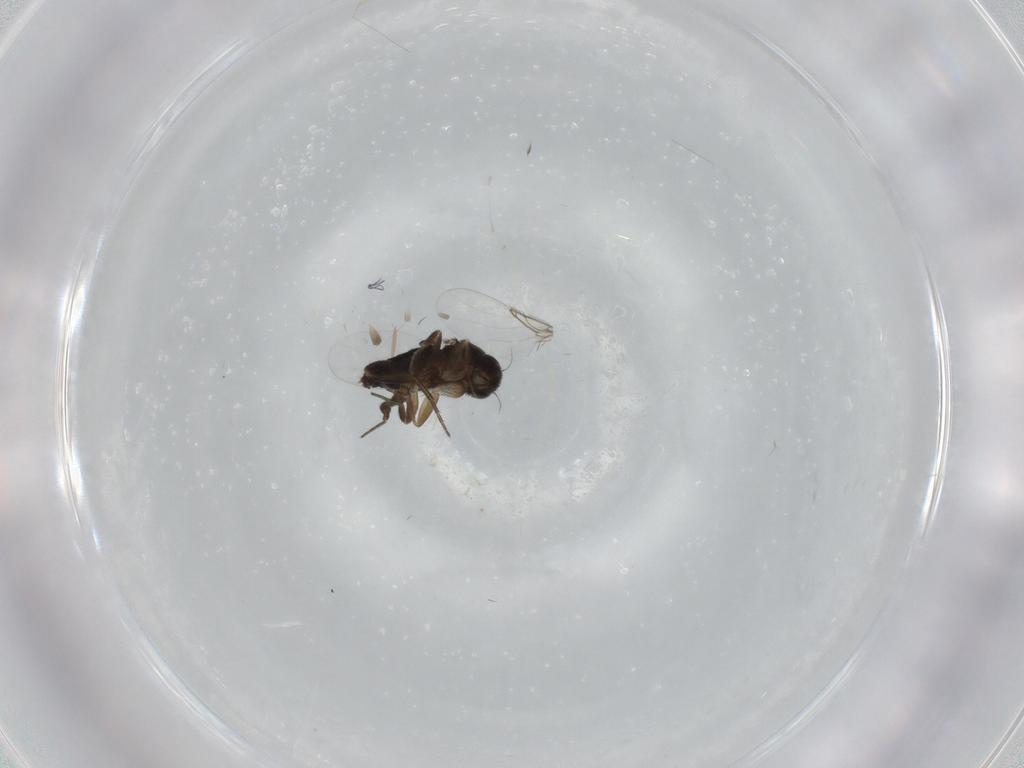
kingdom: Animalia
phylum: Arthropoda
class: Insecta
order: Diptera
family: Phoridae
